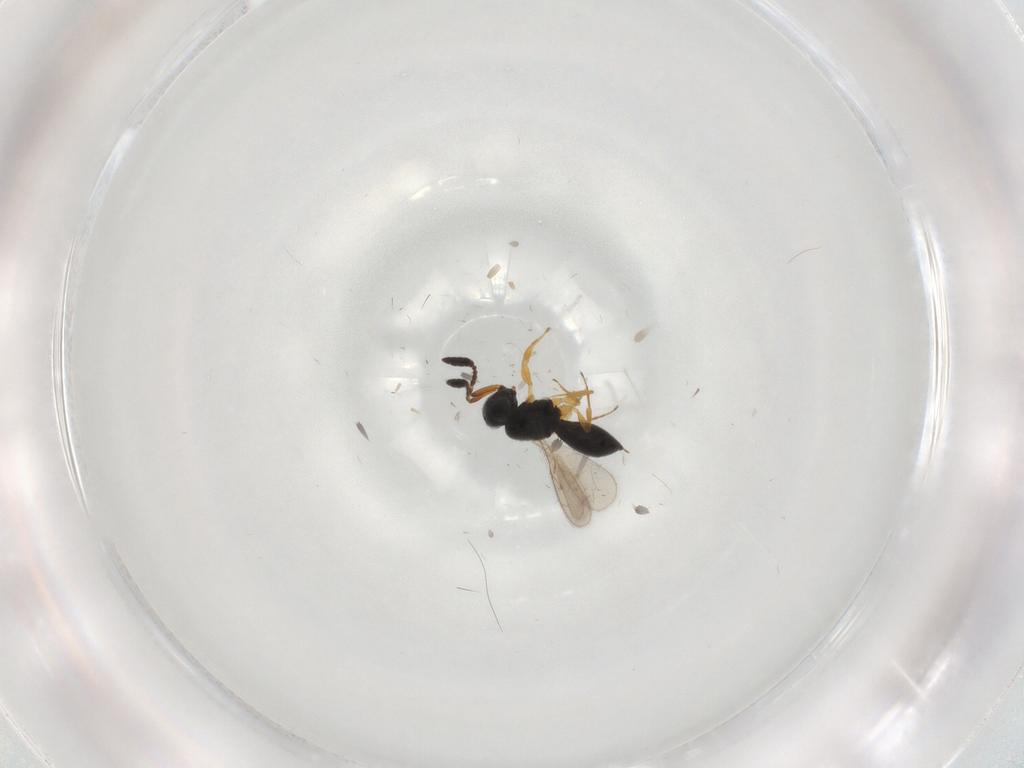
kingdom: Animalia
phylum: Arthropoda
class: Insecta
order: Hymenoptera
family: Scelionidae
